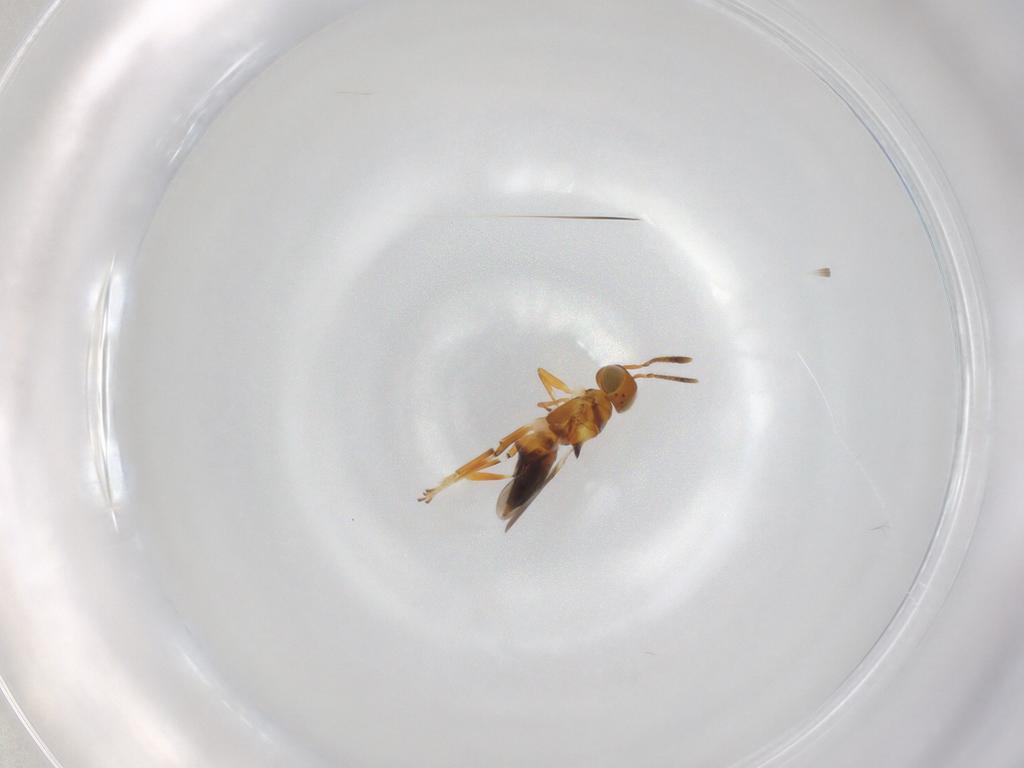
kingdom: Animalia
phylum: Arthropoda
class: Insecta
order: Hymenoptera
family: Encyrtidae
